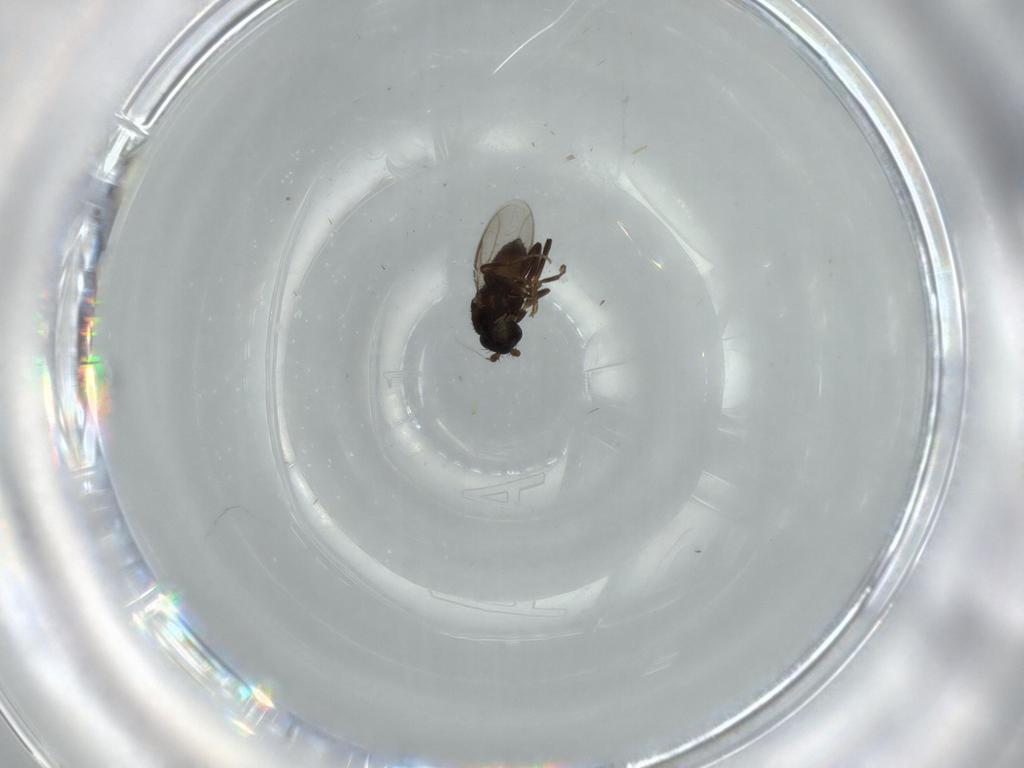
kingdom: Animalia
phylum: Arthropoda
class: Insecta
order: Diptera
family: Sphaeroceridae
